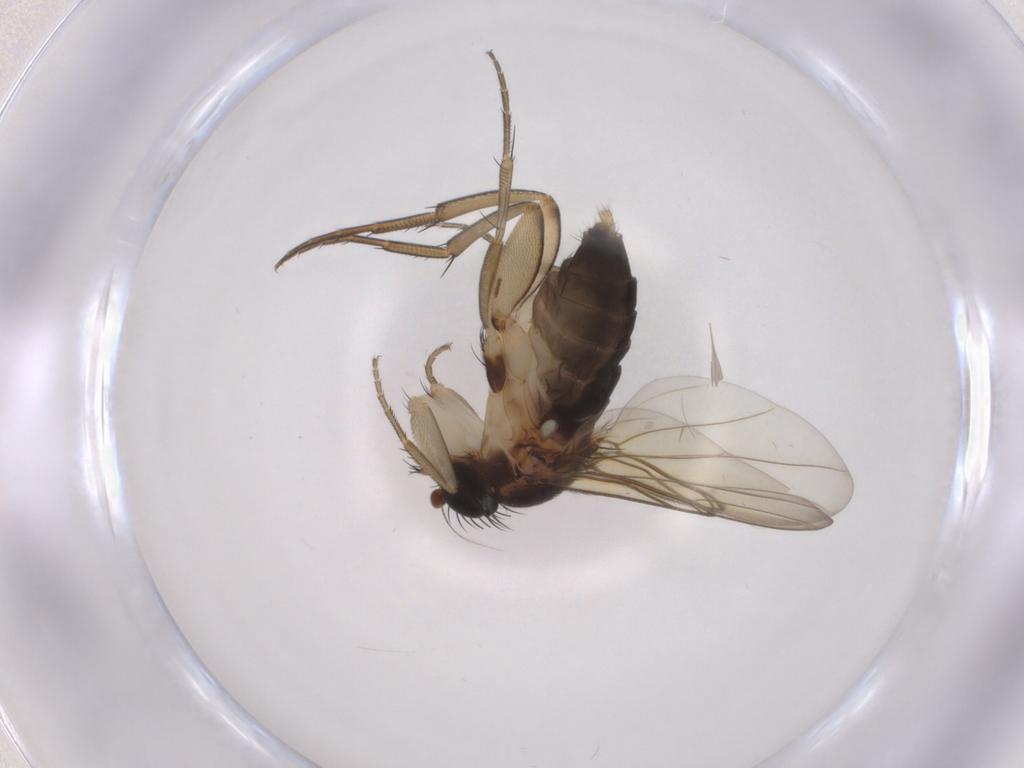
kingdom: Animalia
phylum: Arthropoda
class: Insecta
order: Diptera
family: Phoridae
